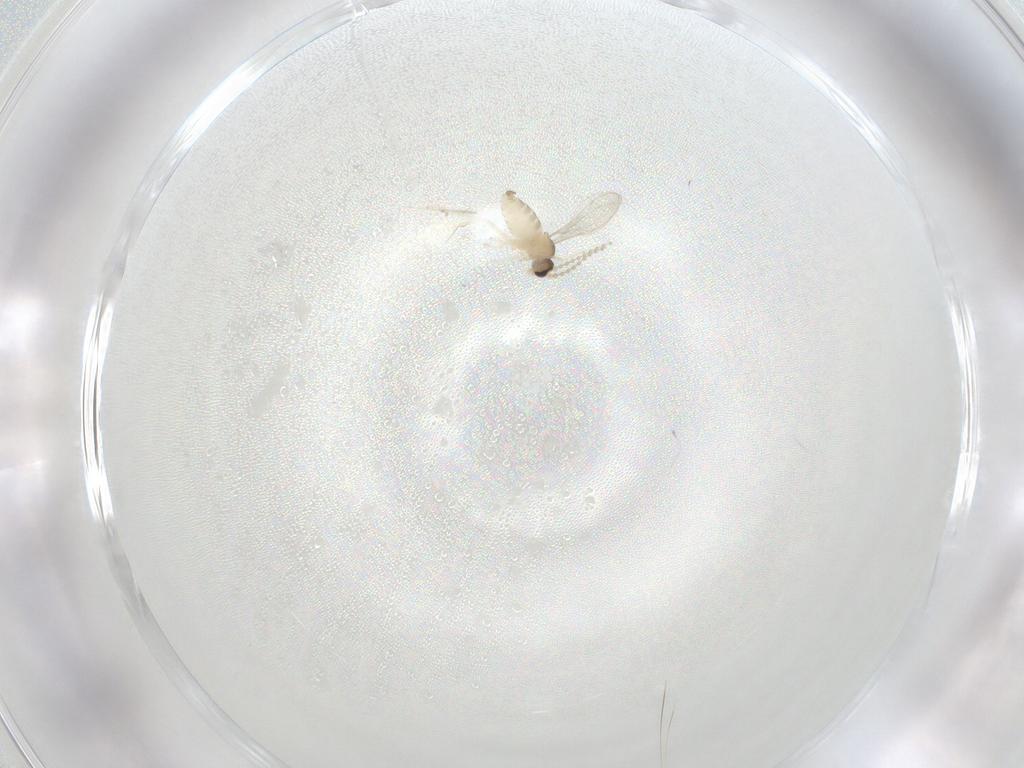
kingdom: Animalia
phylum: Arthropoda
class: Insecta
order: Diptera
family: Cecidomyiidae
